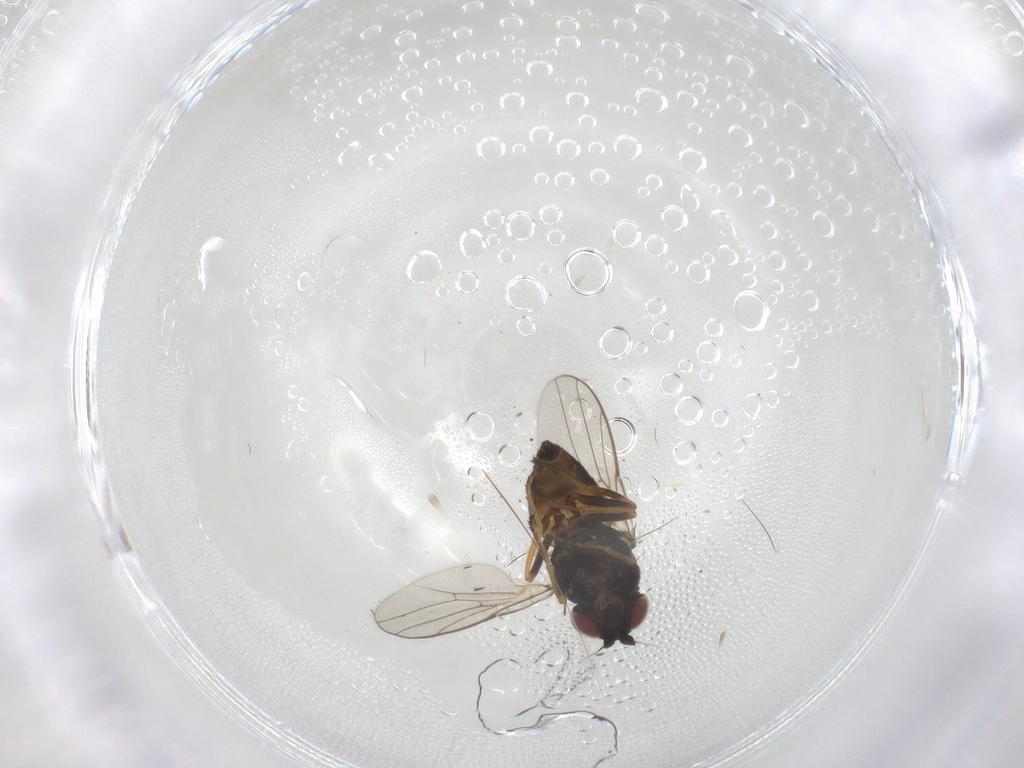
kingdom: Animalia
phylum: Arthropoda
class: Insecta
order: Diptera
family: Chloropidae
